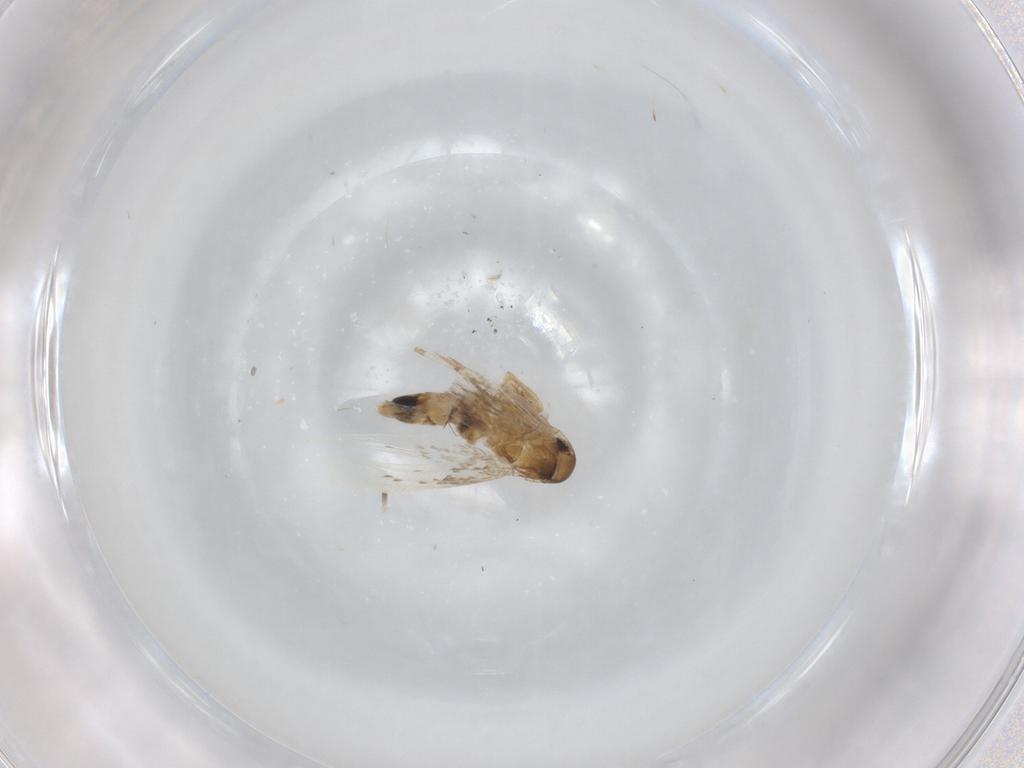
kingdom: Animalia
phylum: Arthropoda
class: Insecta
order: Lepidoptera
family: Cosmopterigidae
